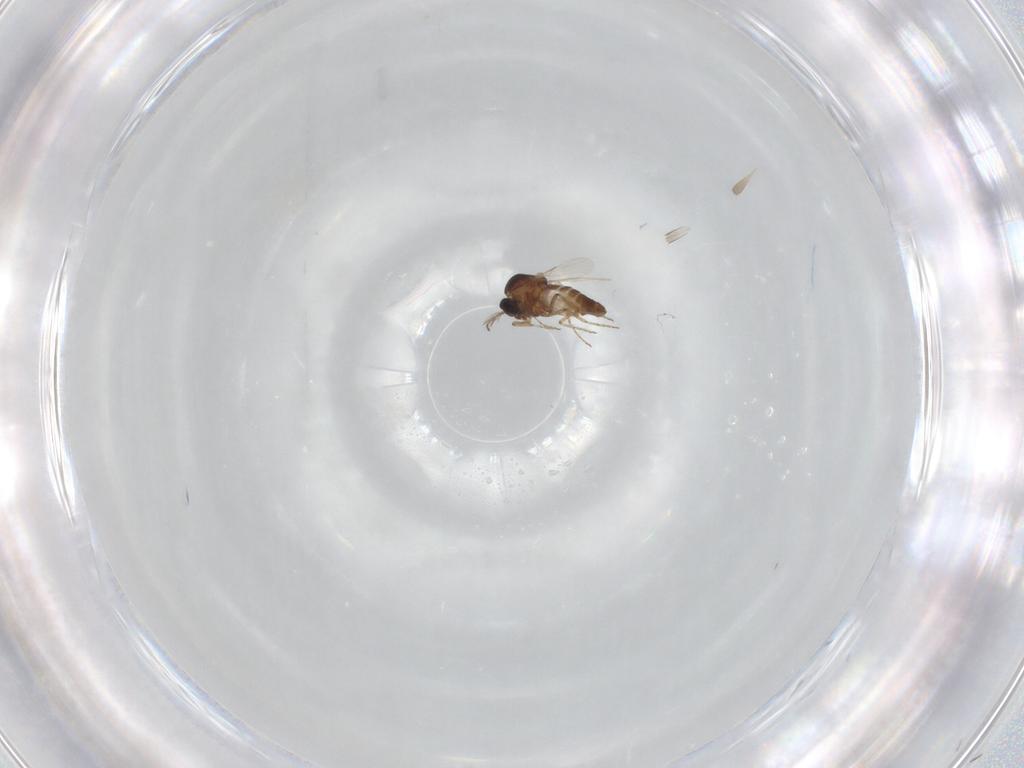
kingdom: Animalia
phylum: Arthropoda
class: Insecta
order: Diptera
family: Ceratopogonidae
